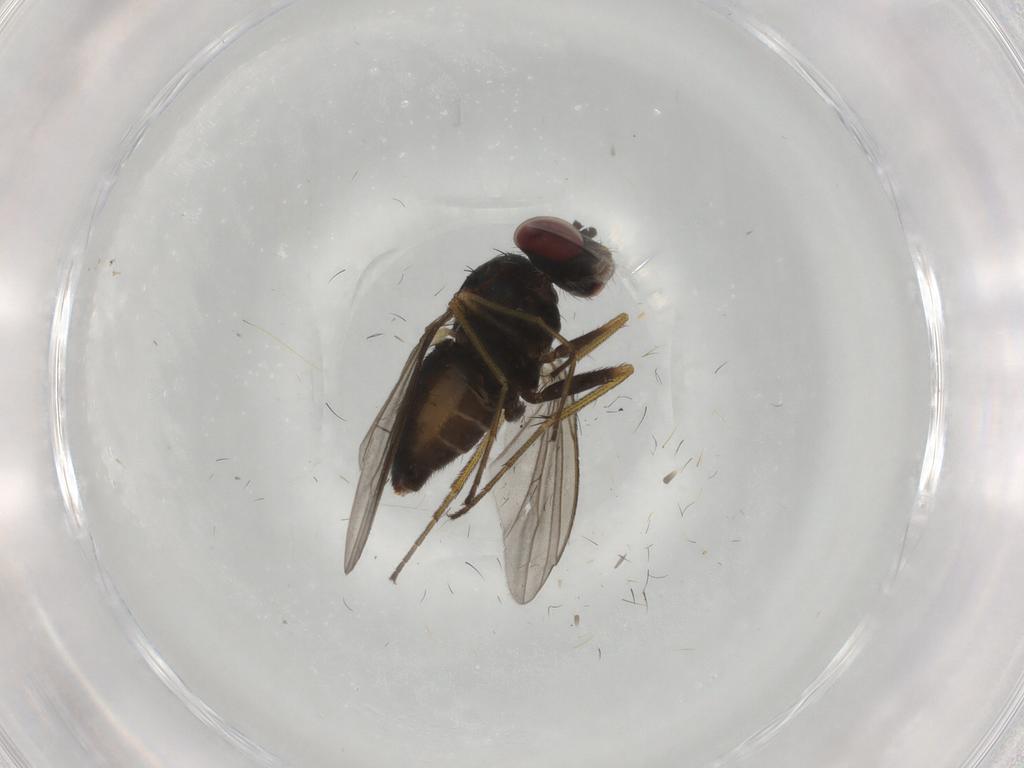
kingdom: Animalia
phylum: Arthropoda
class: Insecta
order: Diptera
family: Dolichopodidae
